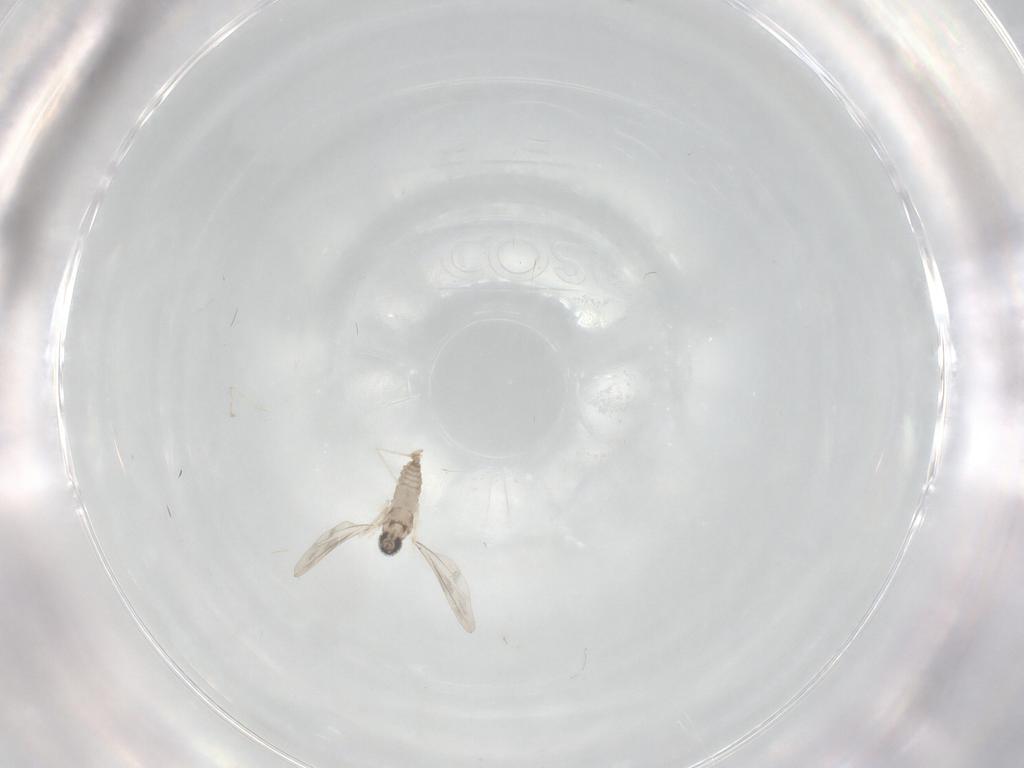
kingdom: Animalia
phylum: Arthropoda
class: Insecta
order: Diptera
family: Cecidomyiidae
